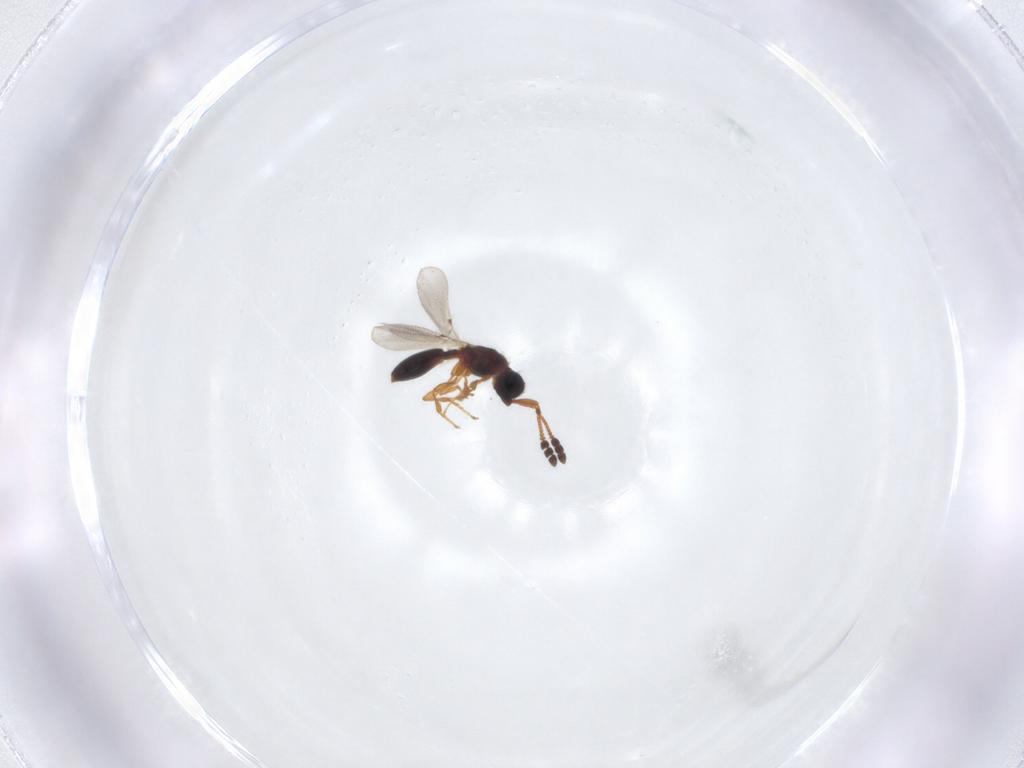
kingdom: Animalia
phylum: Arthropoda
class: Insecta
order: Hymenoptera
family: Diapriidae
